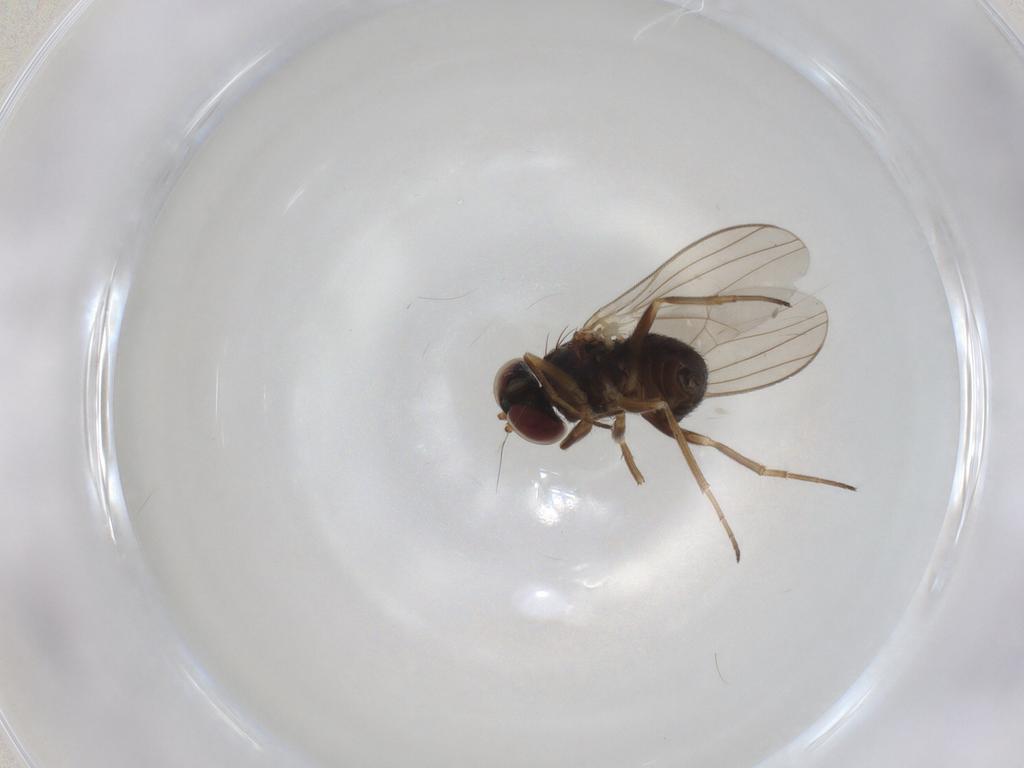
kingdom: Animalia
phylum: Arthropoda
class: Insecta
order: Diptera
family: Dolichopodidae
